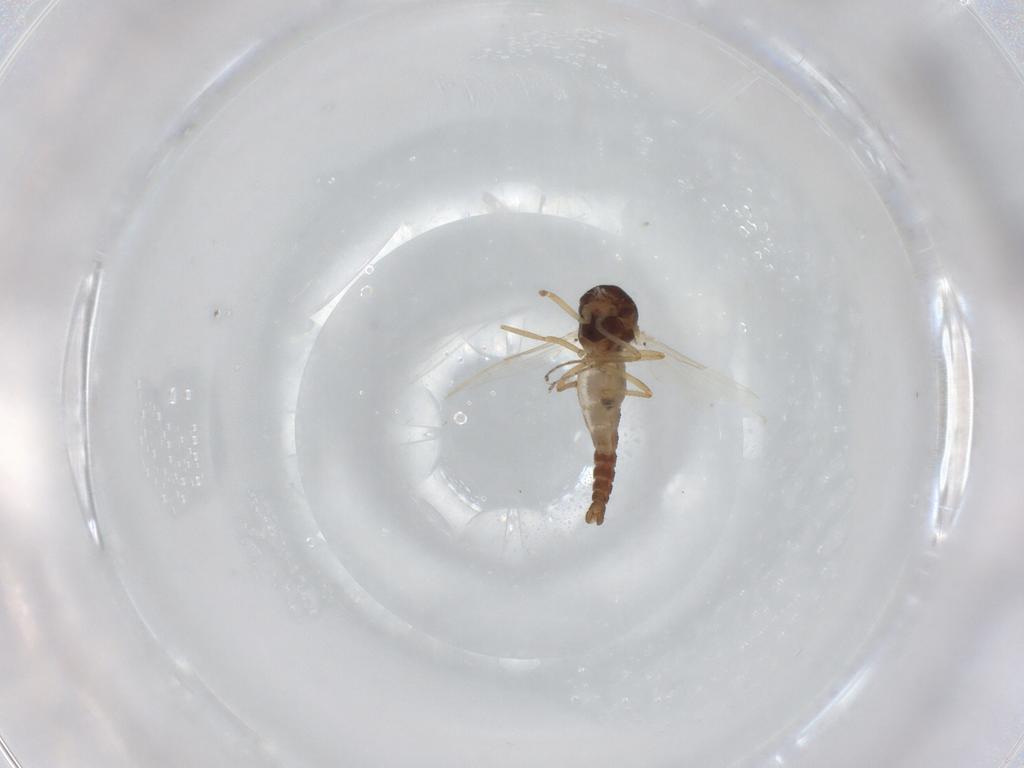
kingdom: Animalia
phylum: Arthropoda
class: Insecta
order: Diptera
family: Ceratopogonidae
